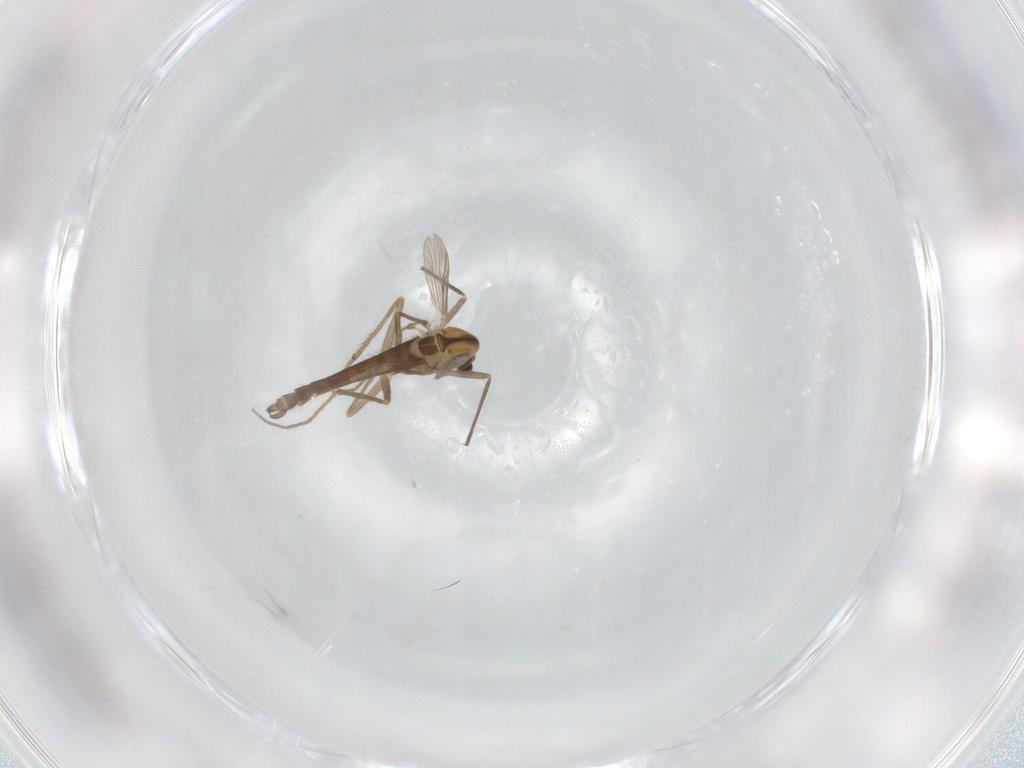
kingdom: Animalia
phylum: Arthropoda
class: Insecta
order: Diptera
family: Chironomidae
